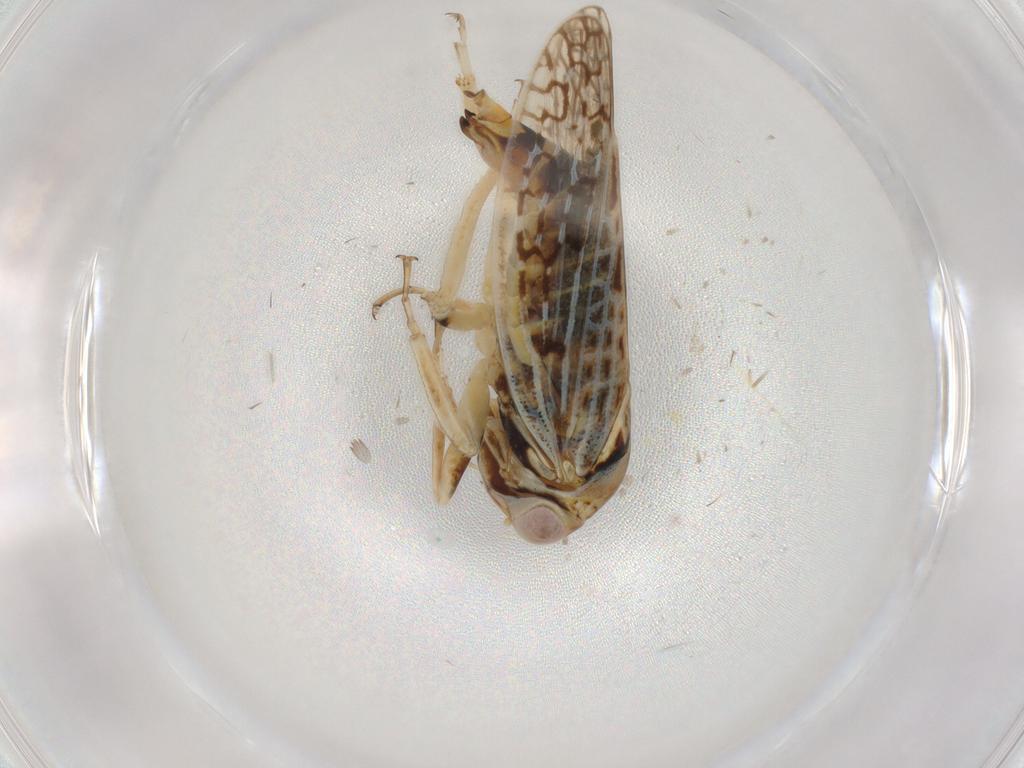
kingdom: Animalia
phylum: Arthropoda
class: Insecta
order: Hemiptera
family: Cicadellidae
